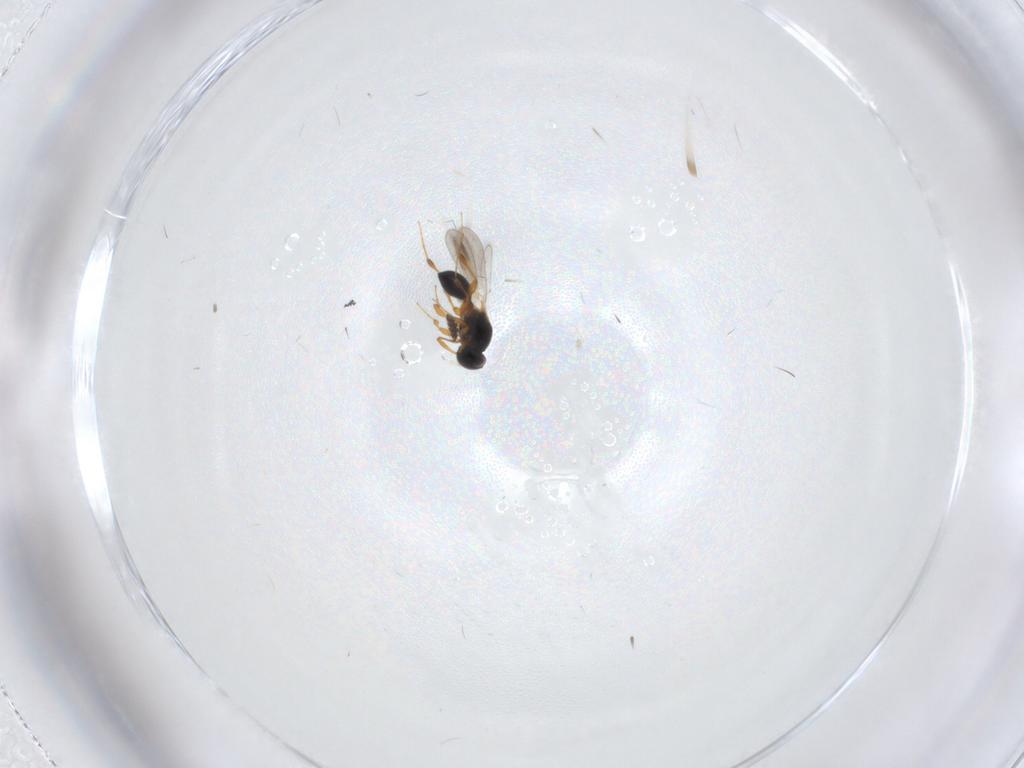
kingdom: Animalia
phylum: Arthropoda
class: Insecta
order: Hymenoptera
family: Platygastridae
